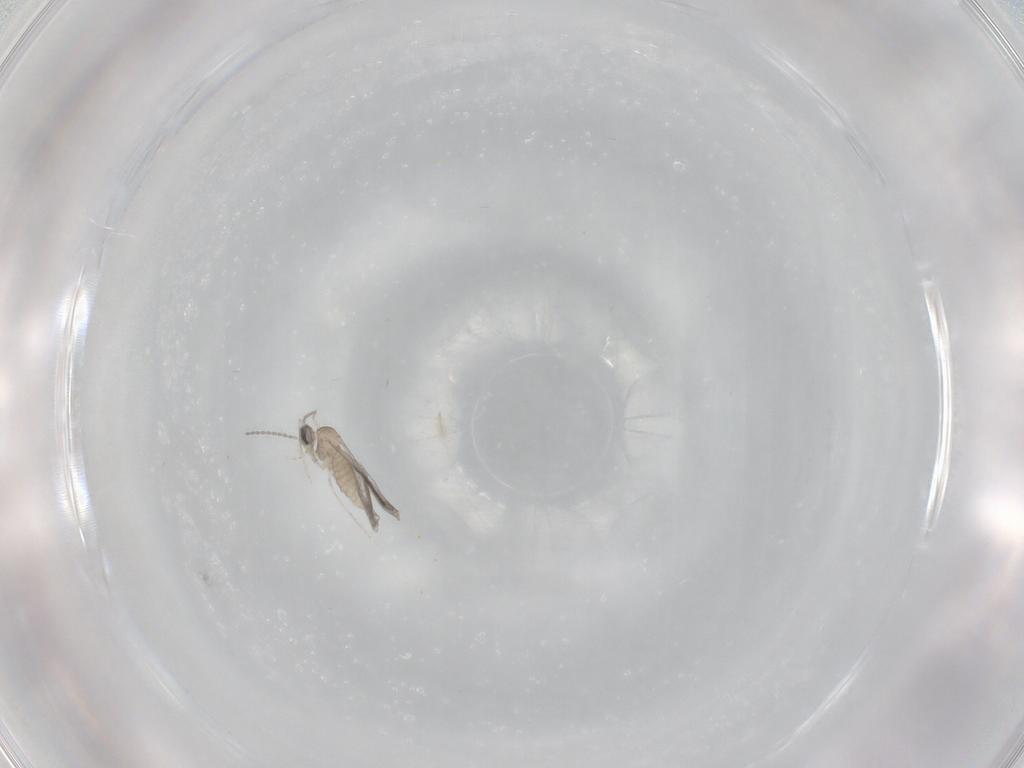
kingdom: Animalia
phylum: Arthropoda
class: Insecta
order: Diptera
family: Cecidomyiidae
